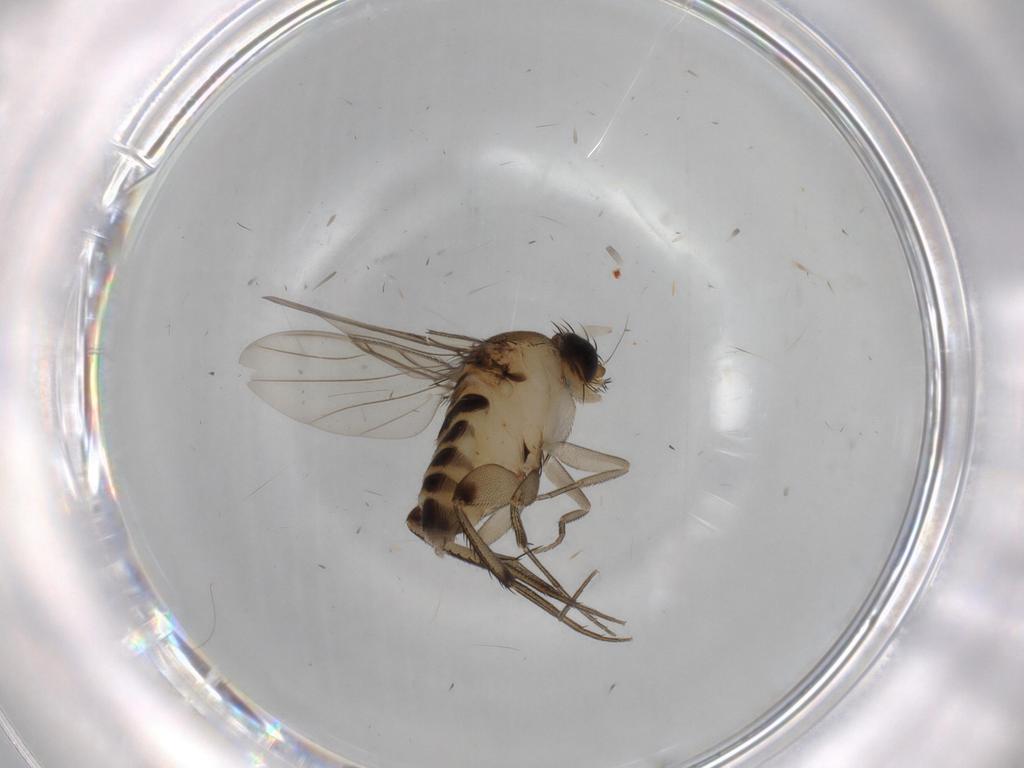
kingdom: Animalia
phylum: Arthropoda
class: Insecta
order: Diptera
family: Phoridae
